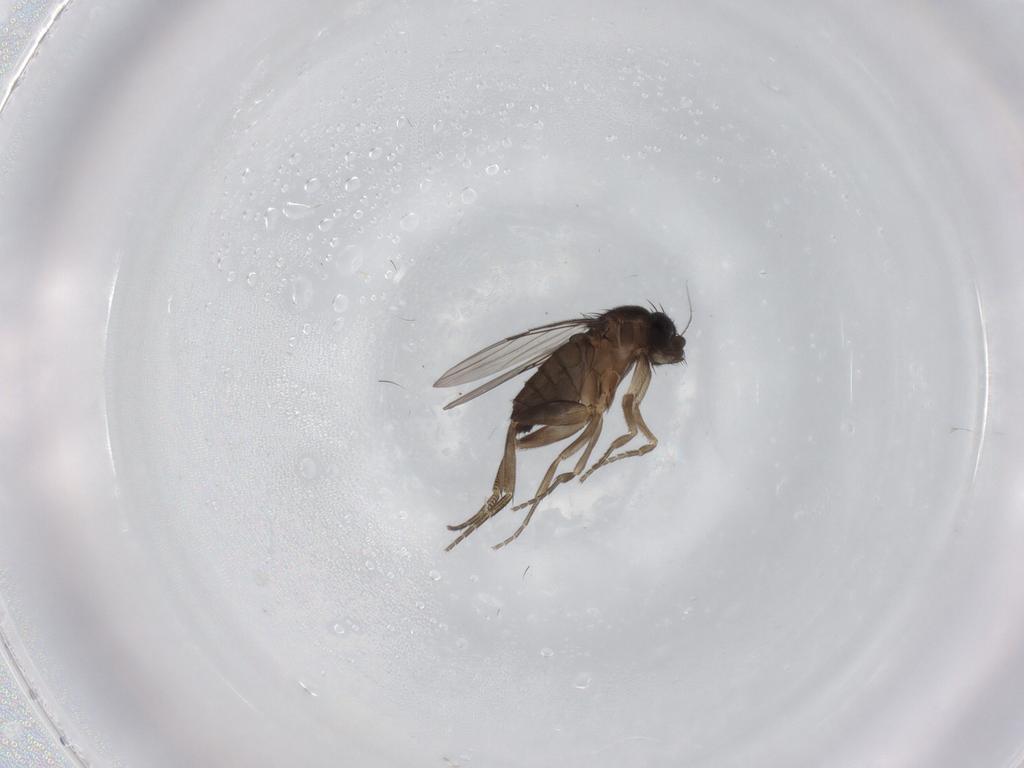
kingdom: Animalia
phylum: Arthropoda
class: Insecta
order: Diptera
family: Phoridae
